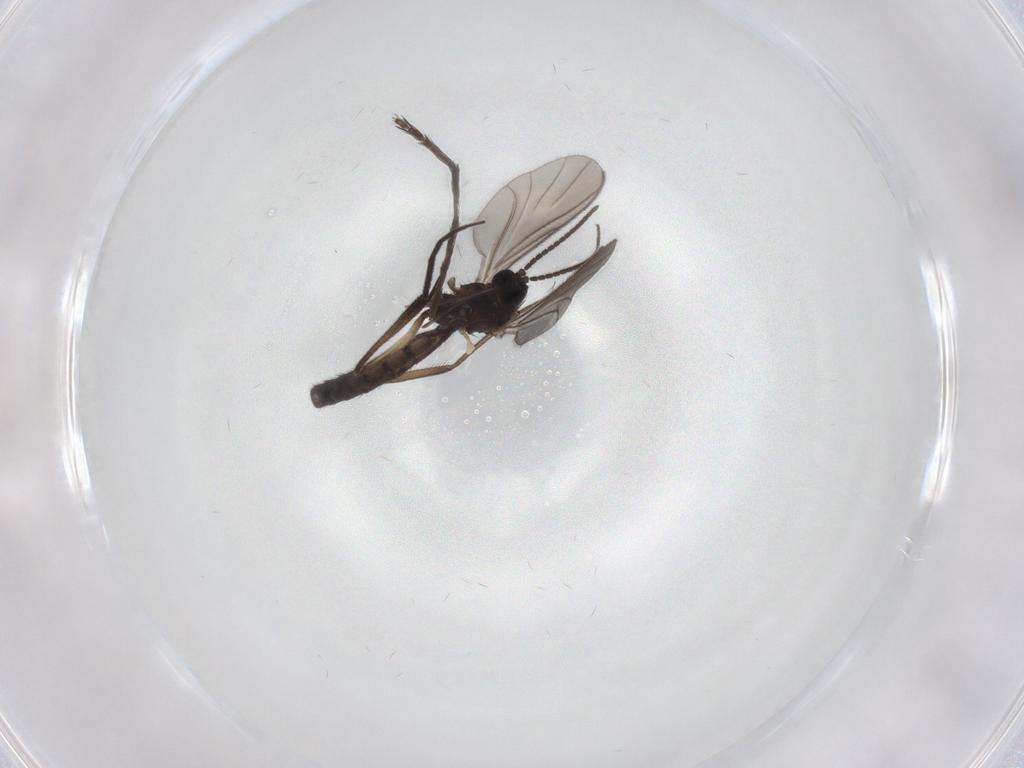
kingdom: Animalia
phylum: Arthropoda
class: Insecta
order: Diptera
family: Keroplatidae
